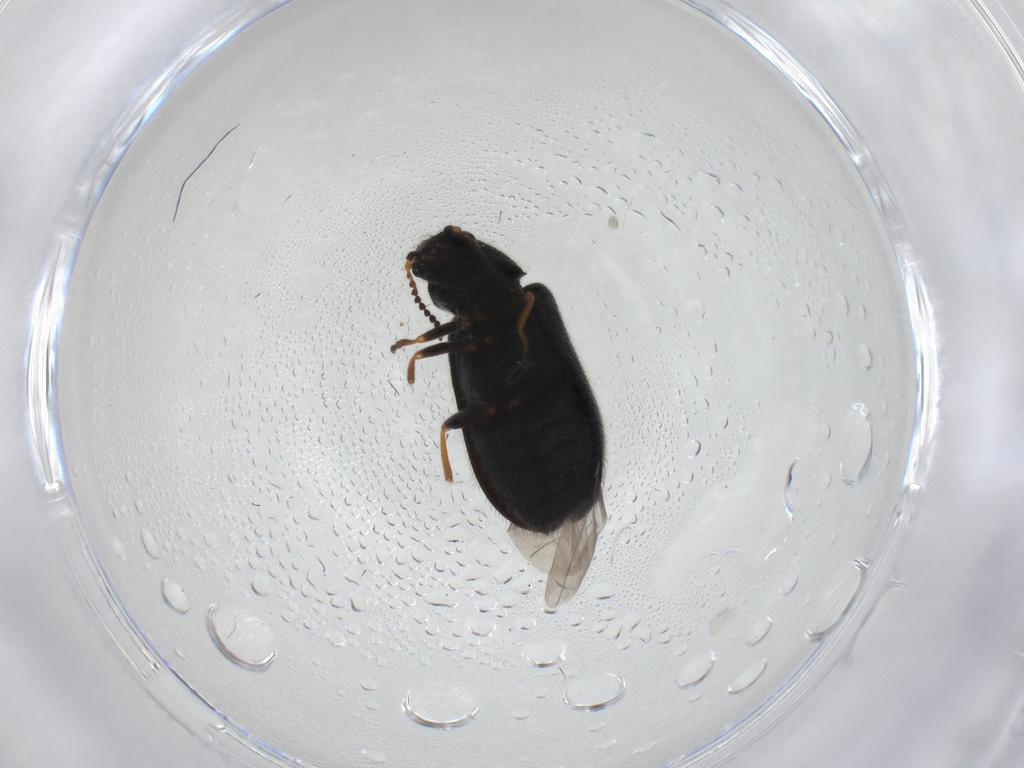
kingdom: Animalia
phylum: Arthropoda
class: Insecta
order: Coleoptera
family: Melyridae
